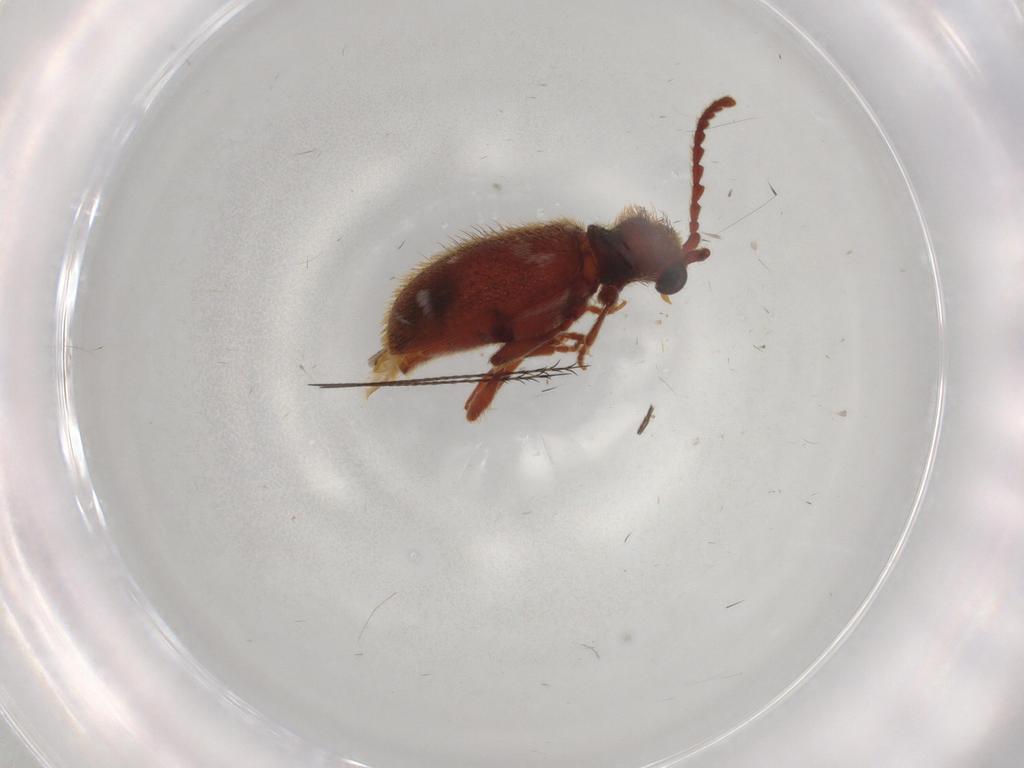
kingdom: Animalia
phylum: Arthropoda
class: Insecta
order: Coleoptera
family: Ptinidae
